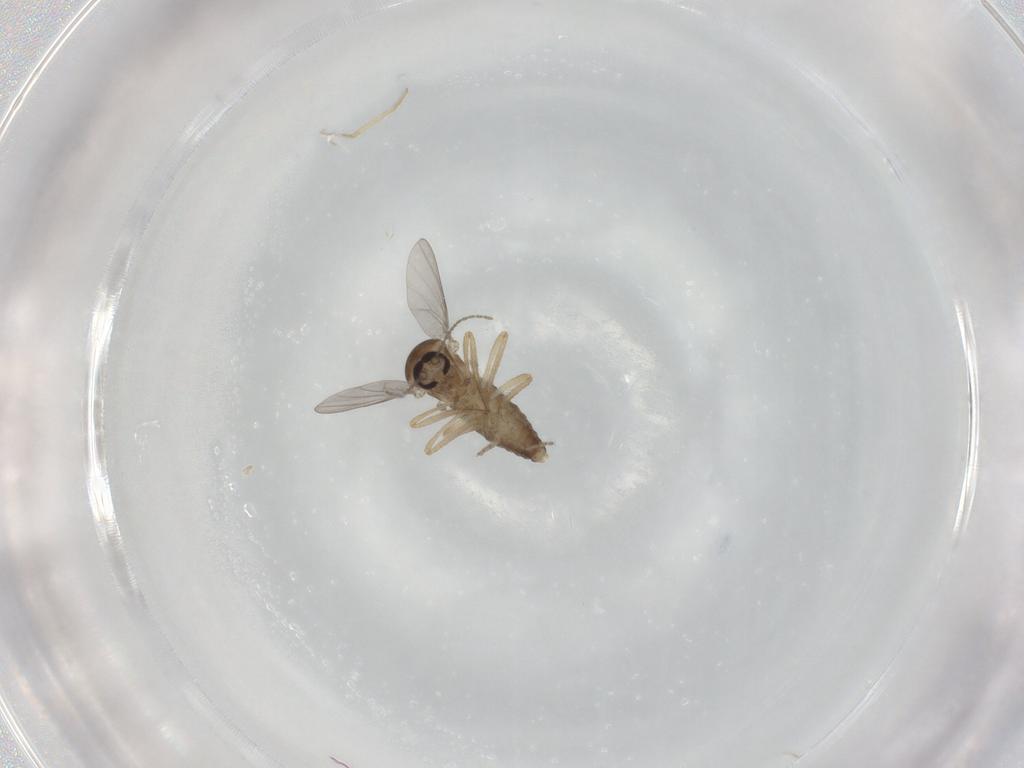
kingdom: Animalia
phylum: Arthropoda
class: Insecta
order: Diptera
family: Ceratopogonidae
